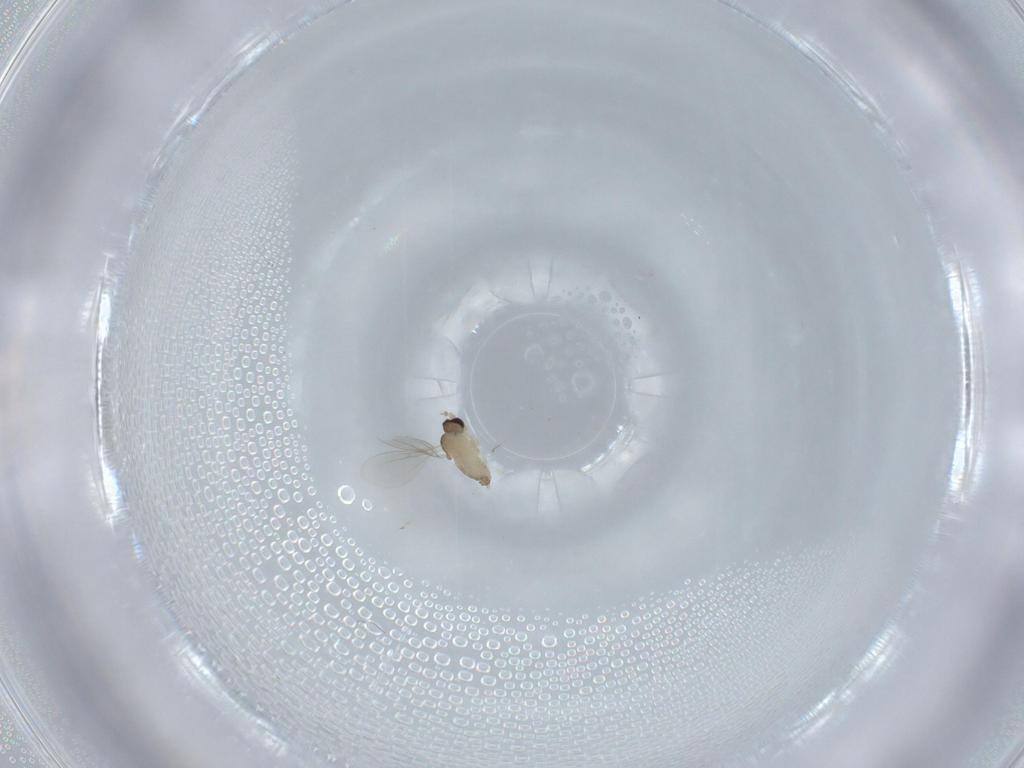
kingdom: Animalia
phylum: Arthropoda
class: Insecta
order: Diptera
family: Cecidomyiidae
